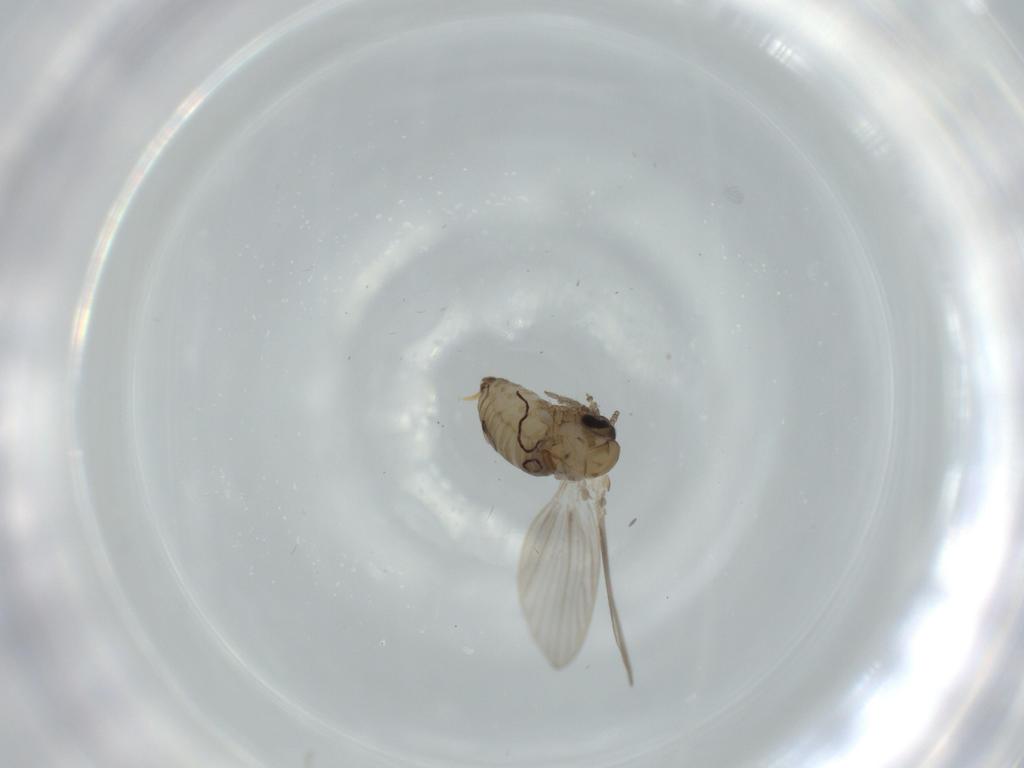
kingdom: Animalia
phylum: Arthropoda
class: Insecta
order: Diptera
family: Psychodidae
